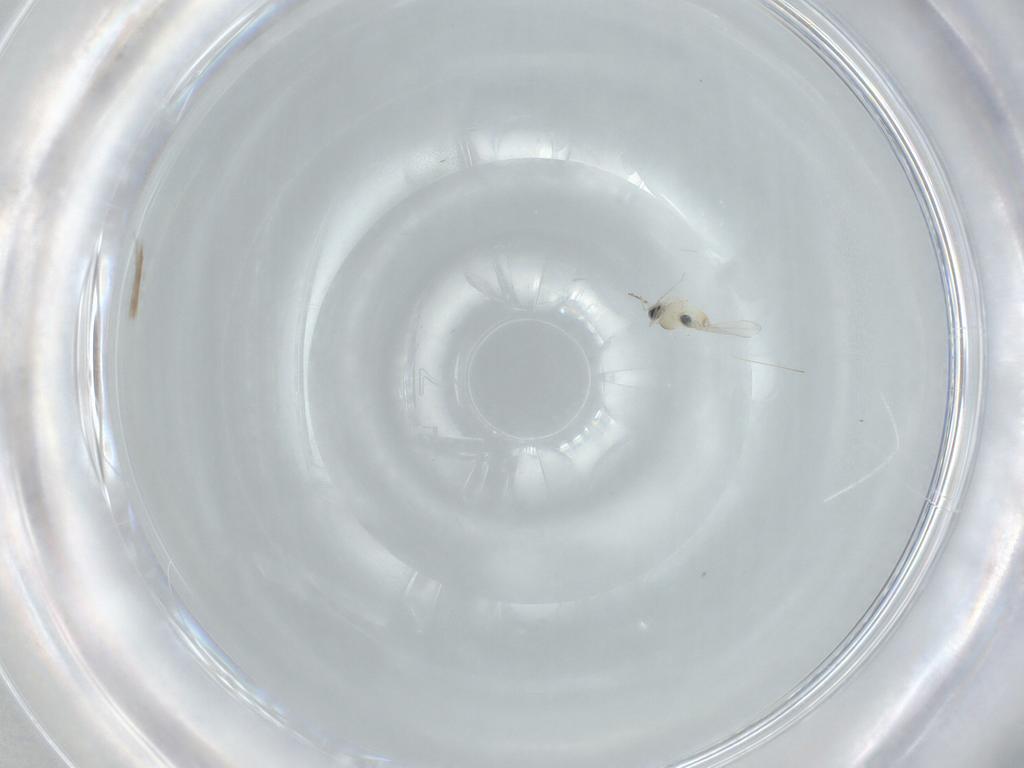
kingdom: Animalia
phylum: Arthropoda
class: Insecta
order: Diptera
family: Cecidomyiidae
